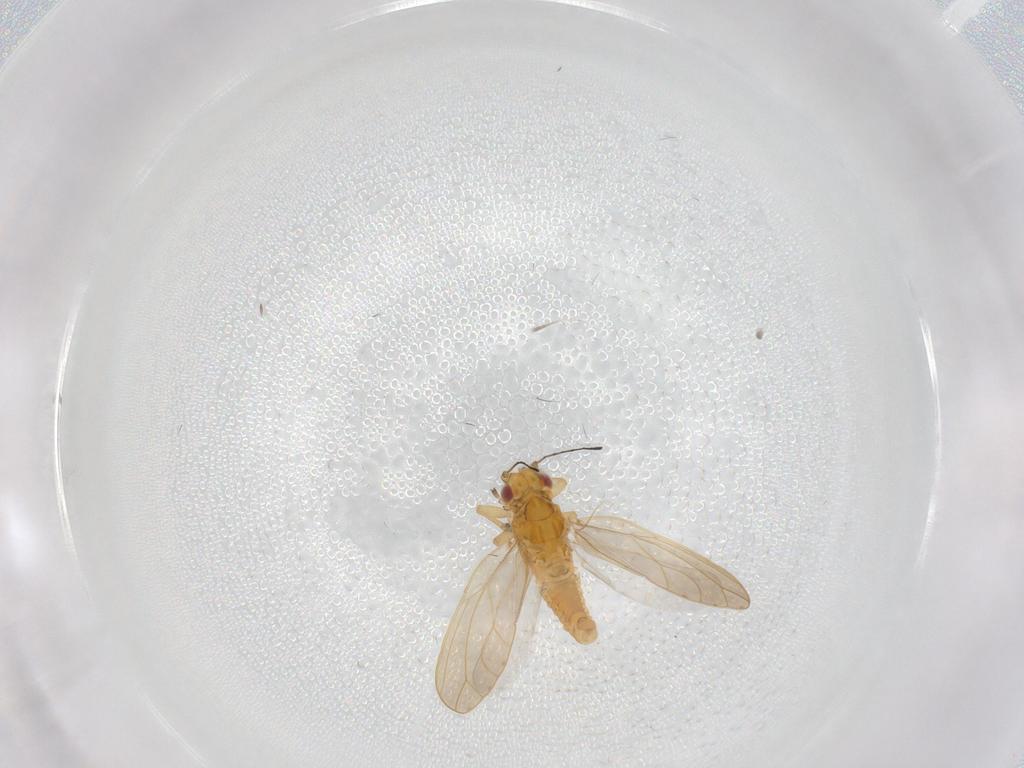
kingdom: Animalia
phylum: Arthropoda
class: Insecta
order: Hemiptera
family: Triozidae
